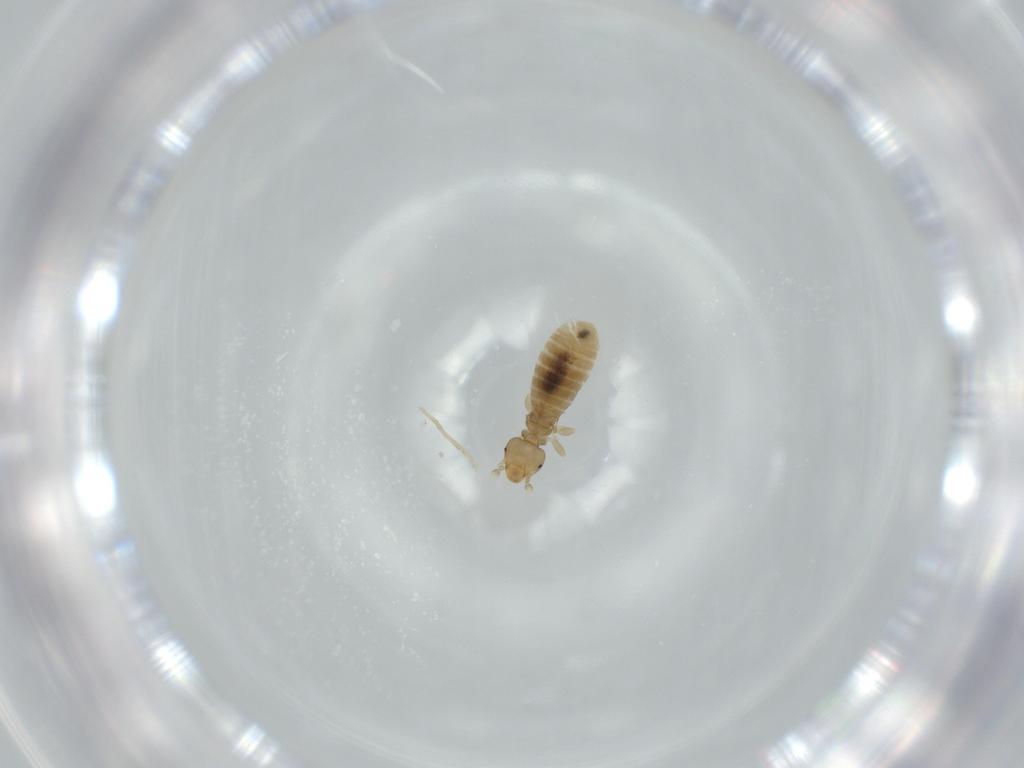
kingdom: Animalia
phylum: Arthropoda
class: Insecta
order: Psocodea
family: Liposcelididae
